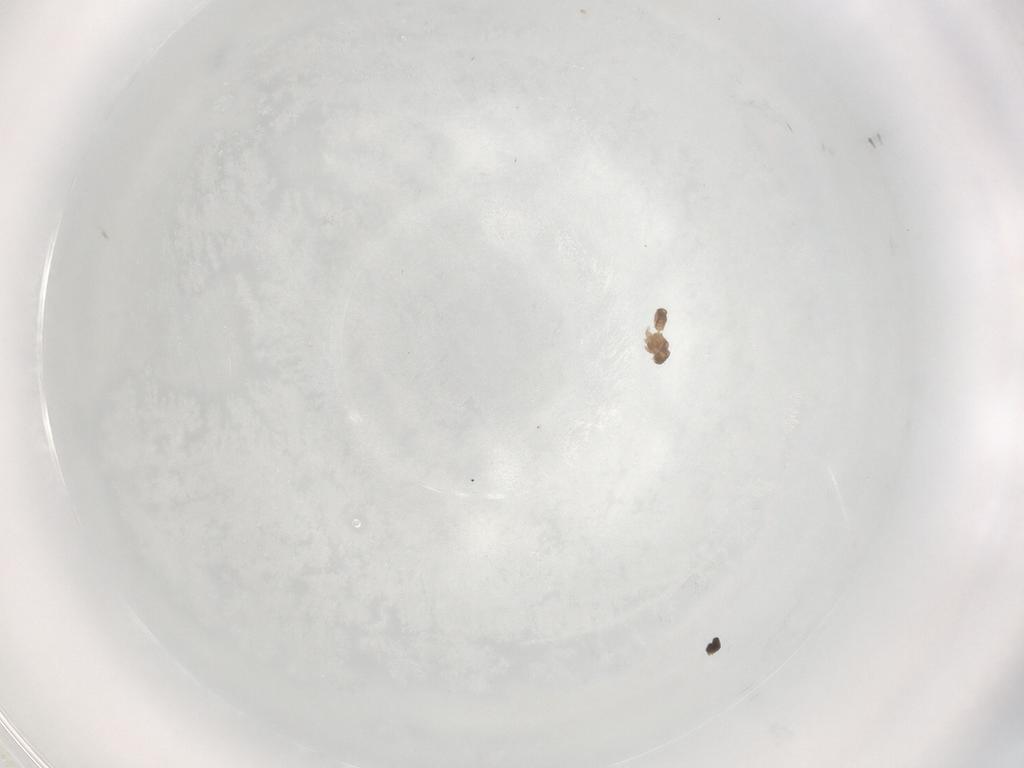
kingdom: Animalia
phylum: Arthropoda
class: Insecta
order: Diptera
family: Cecidomyiidae
